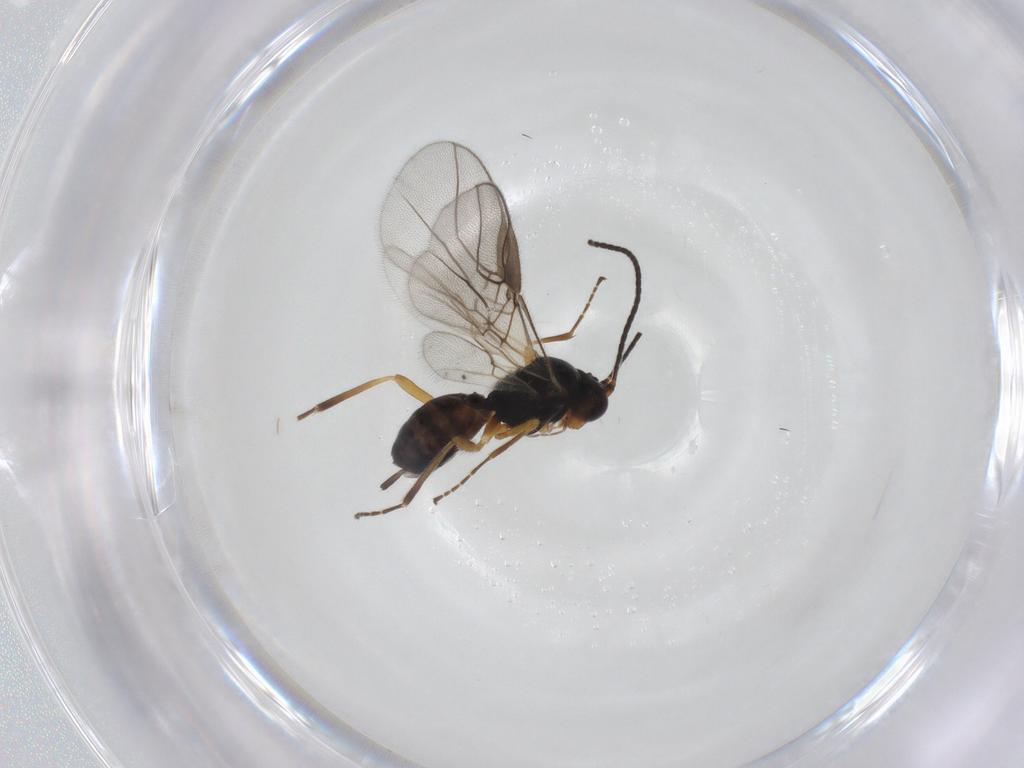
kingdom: Animalia
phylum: Arthropoda
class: Insecta
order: Hymenoptera
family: Braconidae
